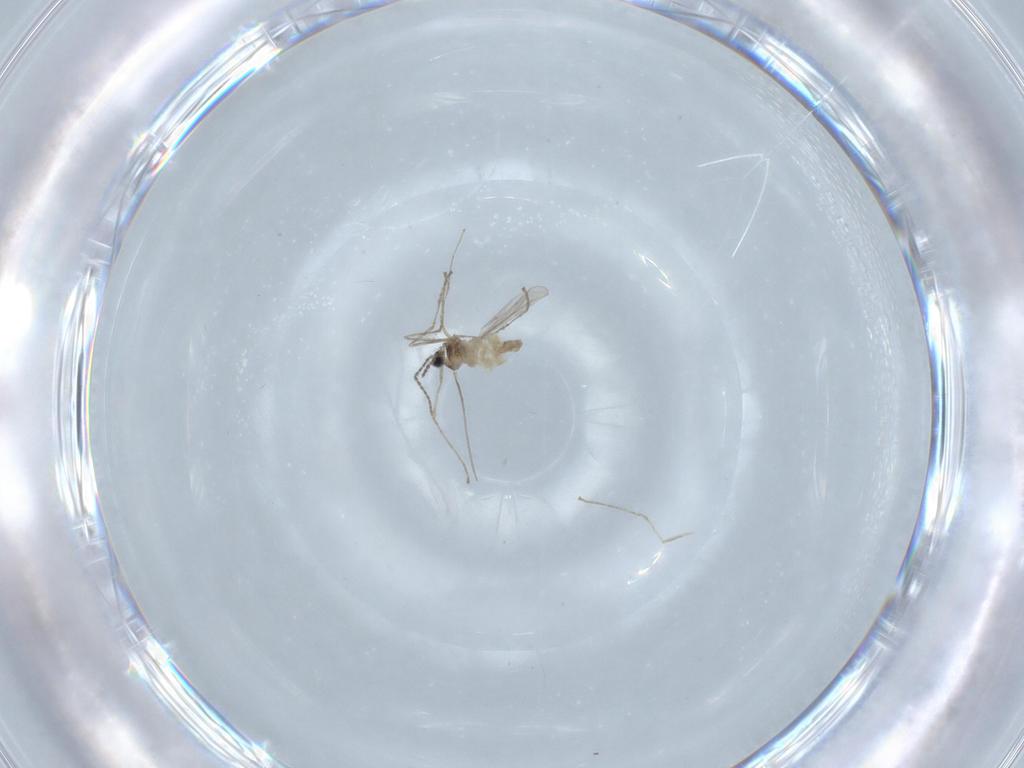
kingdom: Animalia
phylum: Arthropoda
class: Insecta
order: Diptera
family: Cecidomyiidae
